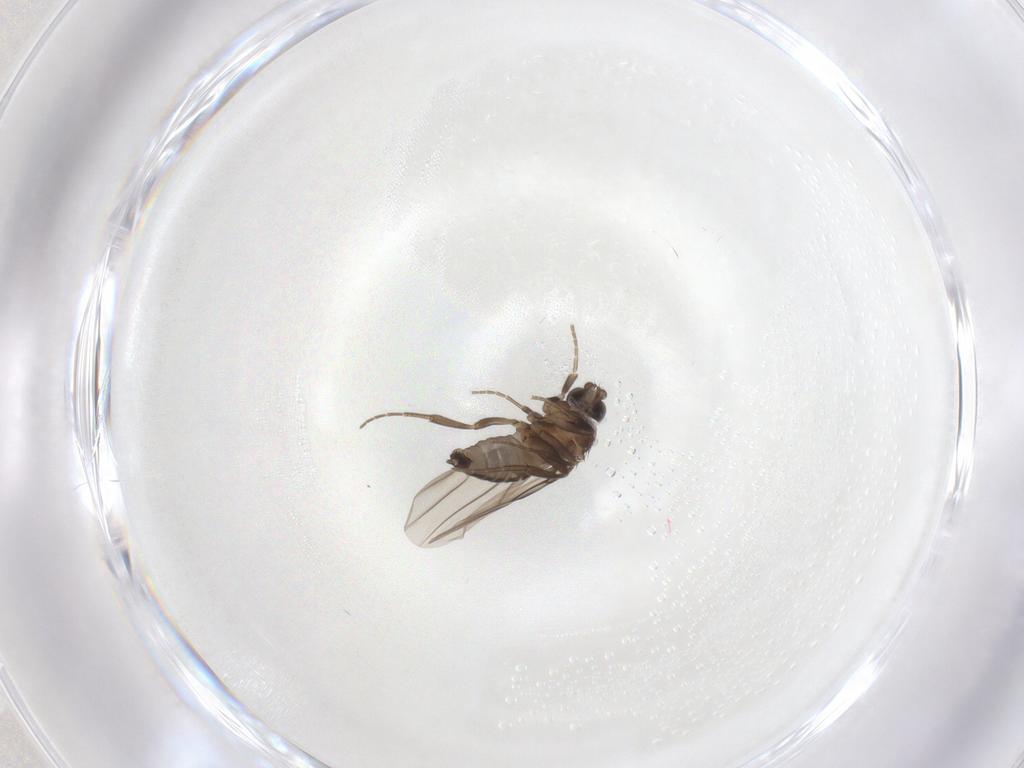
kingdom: Animalia
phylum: Arthropoda
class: Insecta
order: Diptera
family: Phoridae
